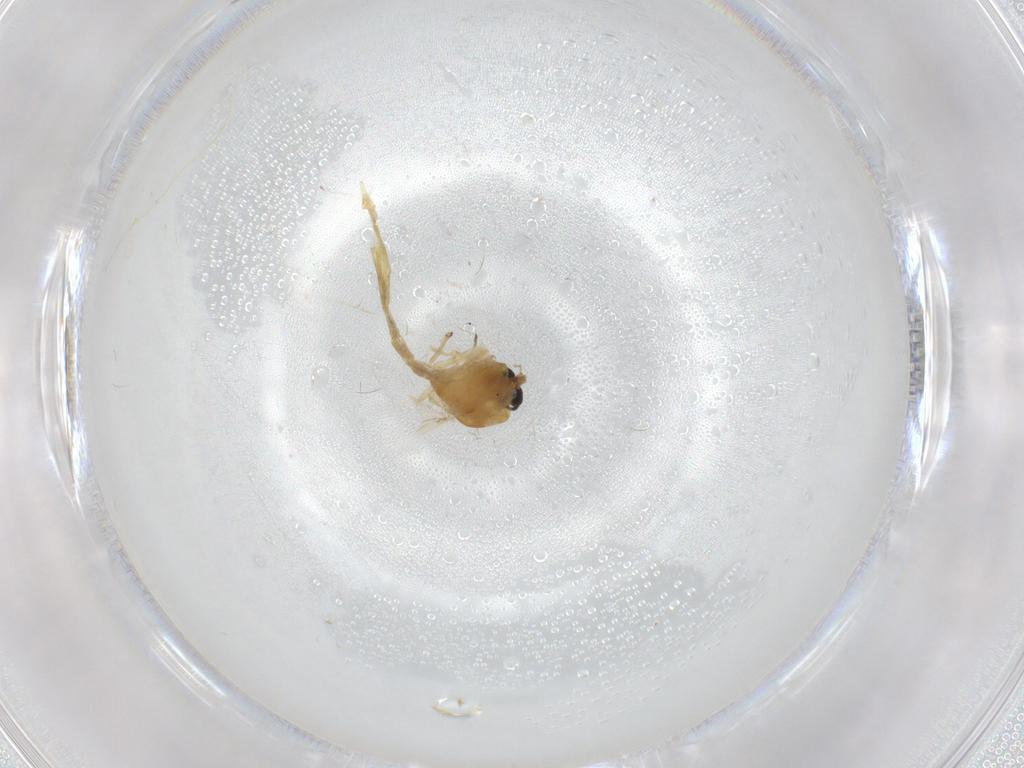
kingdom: Animalia
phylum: Arthropoda
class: Insecta
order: Diptera
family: Chironomidae
